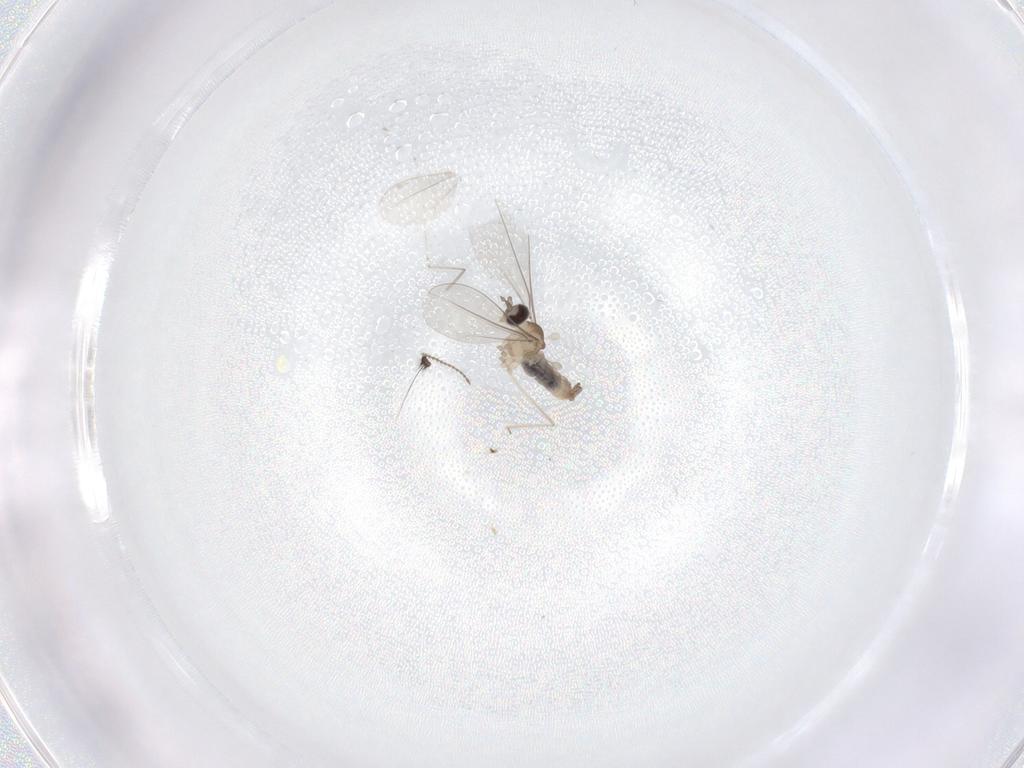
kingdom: Animalia
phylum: Arthropoda
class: Insecta
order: Diptera
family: Cecidomyiidae
